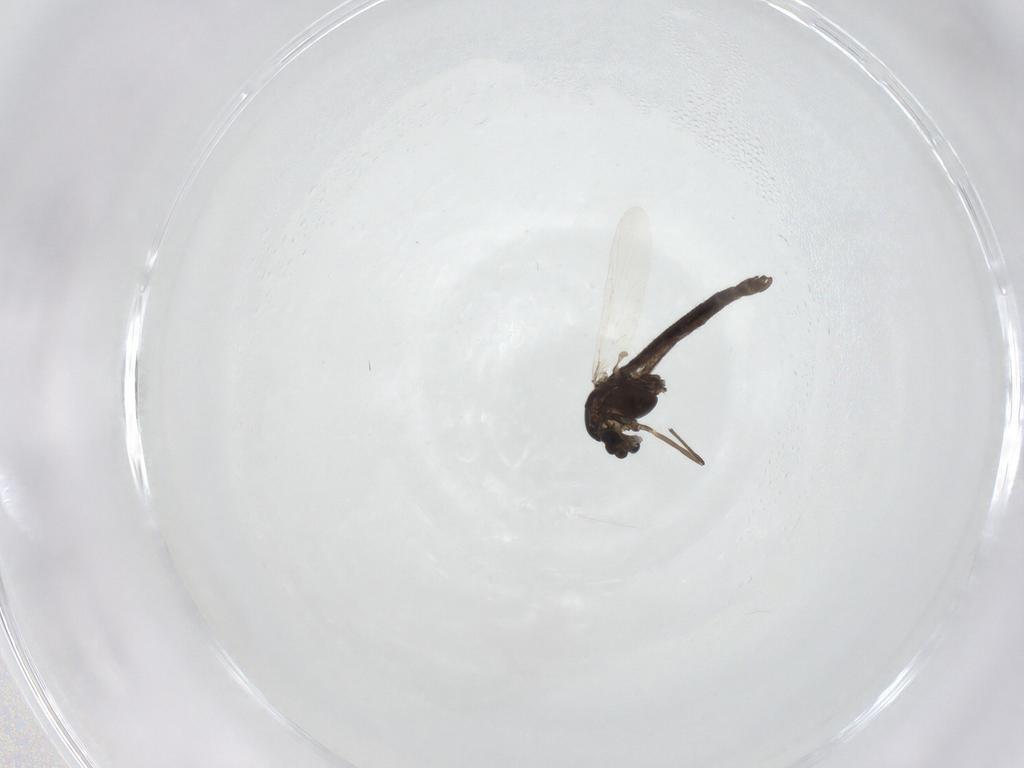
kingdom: Animalia
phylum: Arthropoda
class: Insecta
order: Diptera
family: Chironomidae
